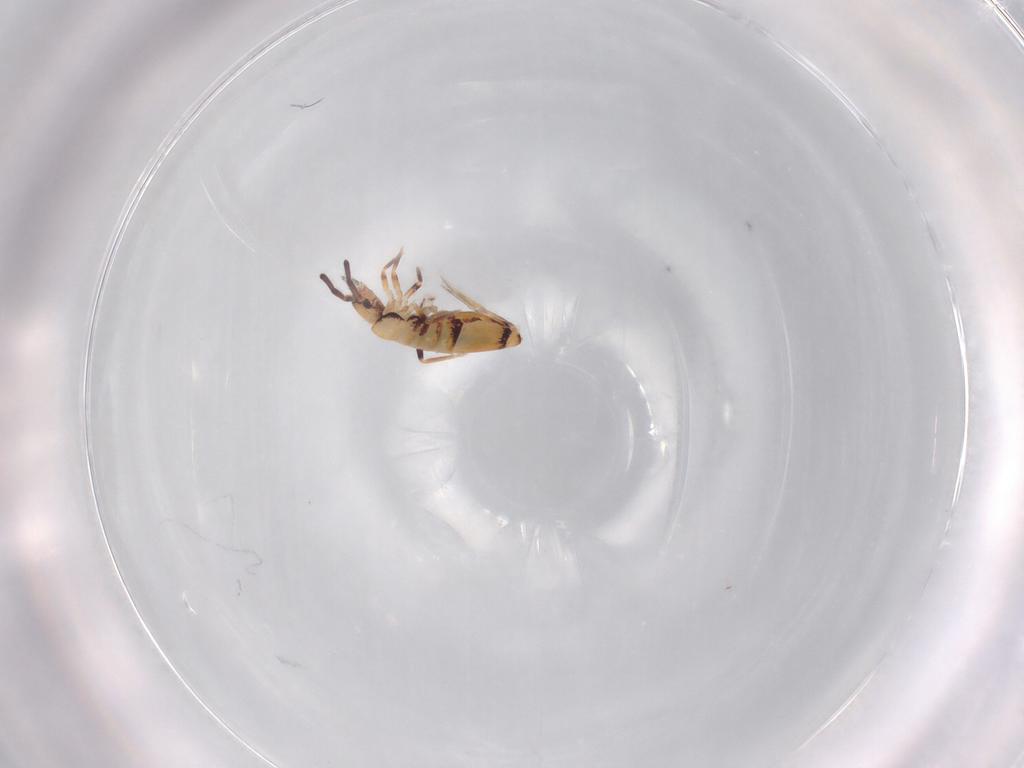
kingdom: Animalia
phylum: Arthropoda
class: Collembola
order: Entomobryomorpha
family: Entomobryidae
